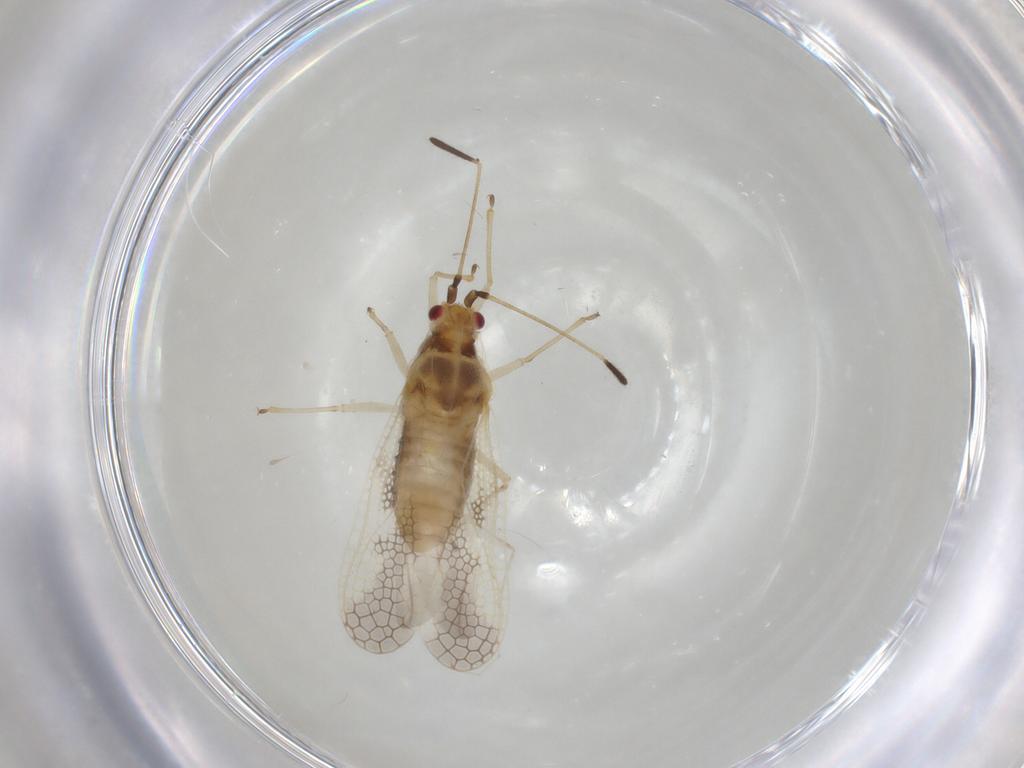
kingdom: Animalia
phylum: Arthropoda
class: Insecta
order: Hemiptera
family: Tingidae
